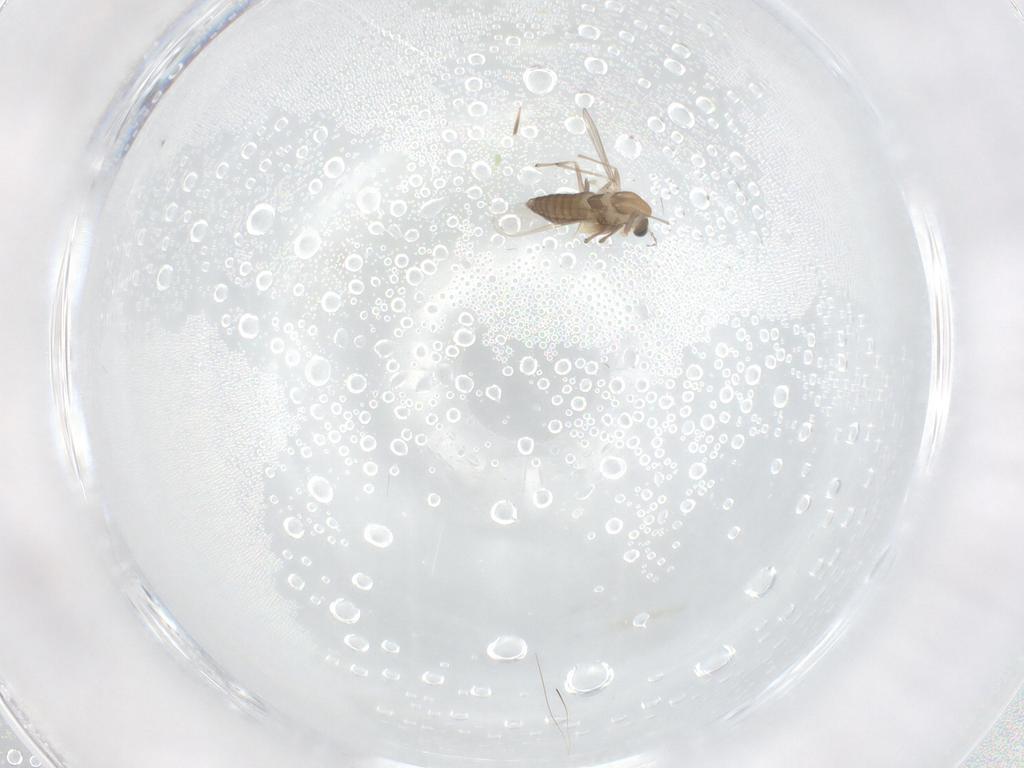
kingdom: Animalia
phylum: Arthropoda
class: Insecta
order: Diptera
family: Chironomidae
